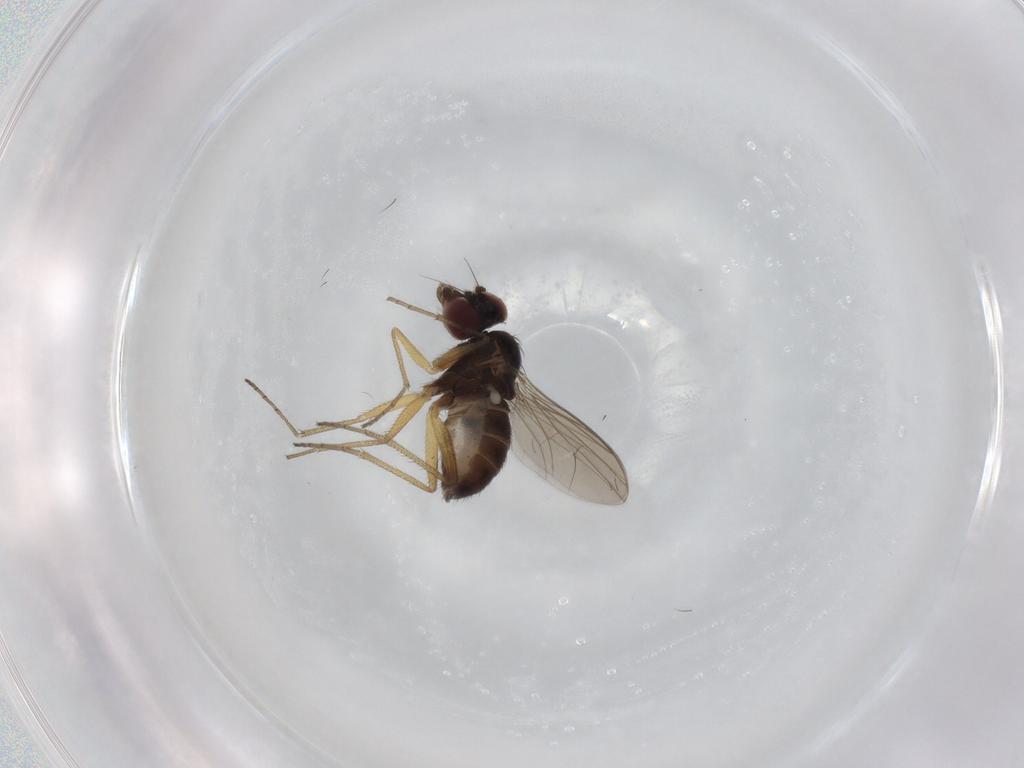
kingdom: Animalia
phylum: Arthropoda
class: Insecta
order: Diptera
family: Dolichopodidae
